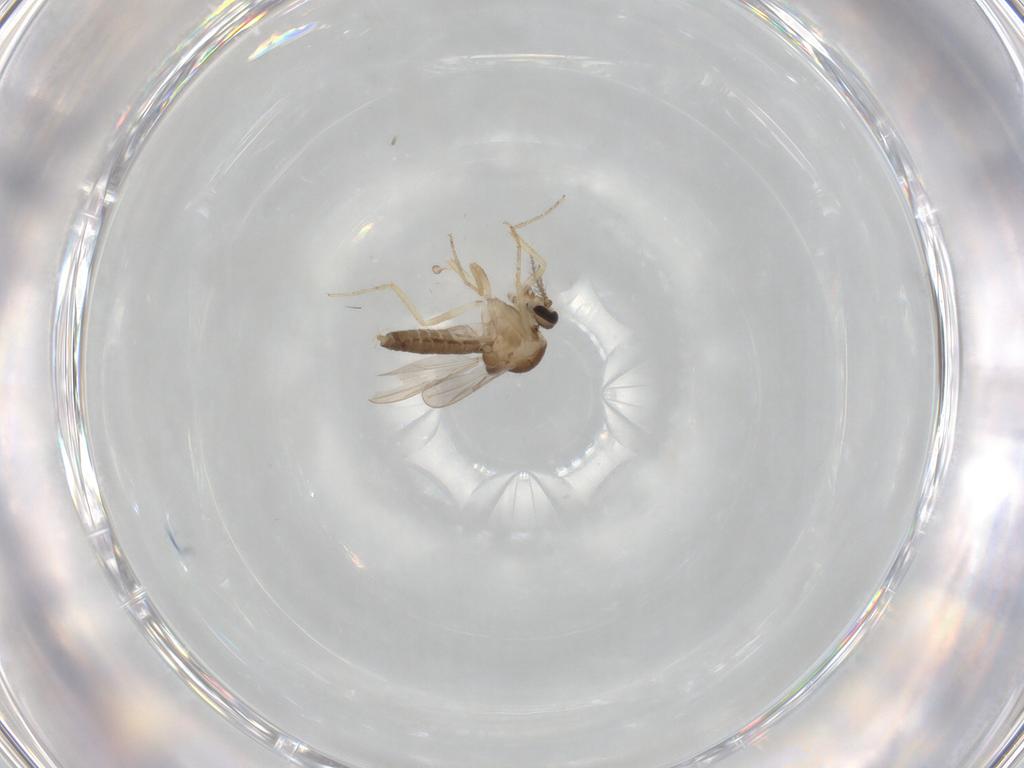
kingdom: Animalia
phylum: Arthropoda
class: Insecta
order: Diptera
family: Ceratopogonidae
